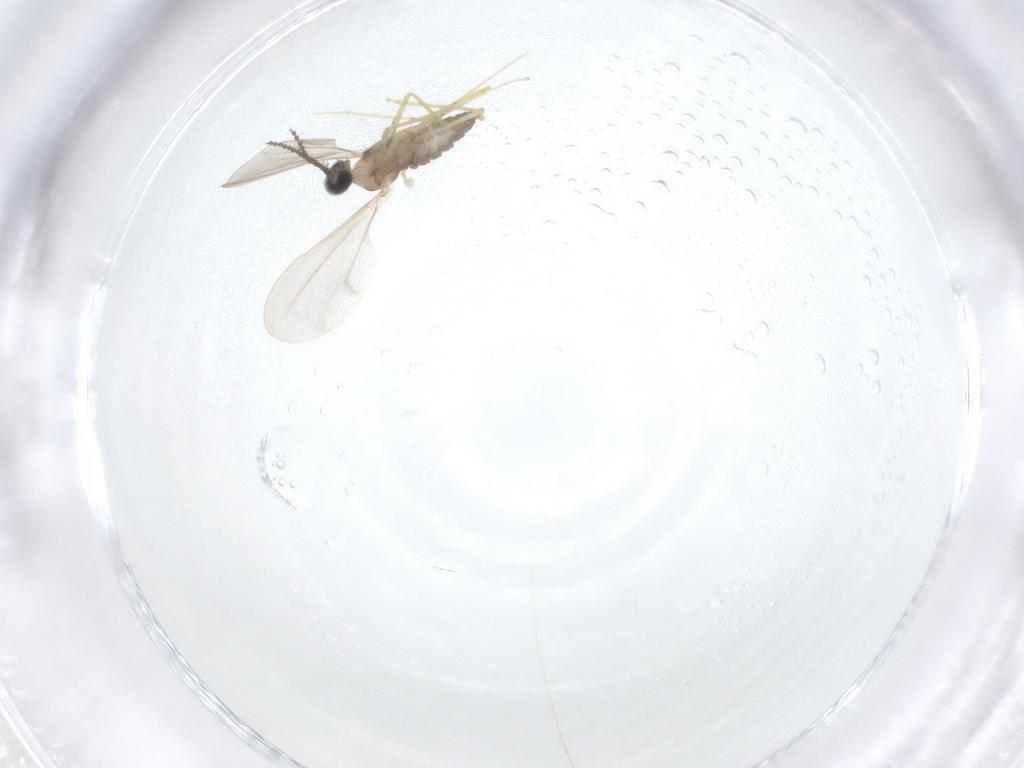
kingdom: Animalia
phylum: Arthropoda
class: Insecta
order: Diptera
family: Cecidomyiidae
